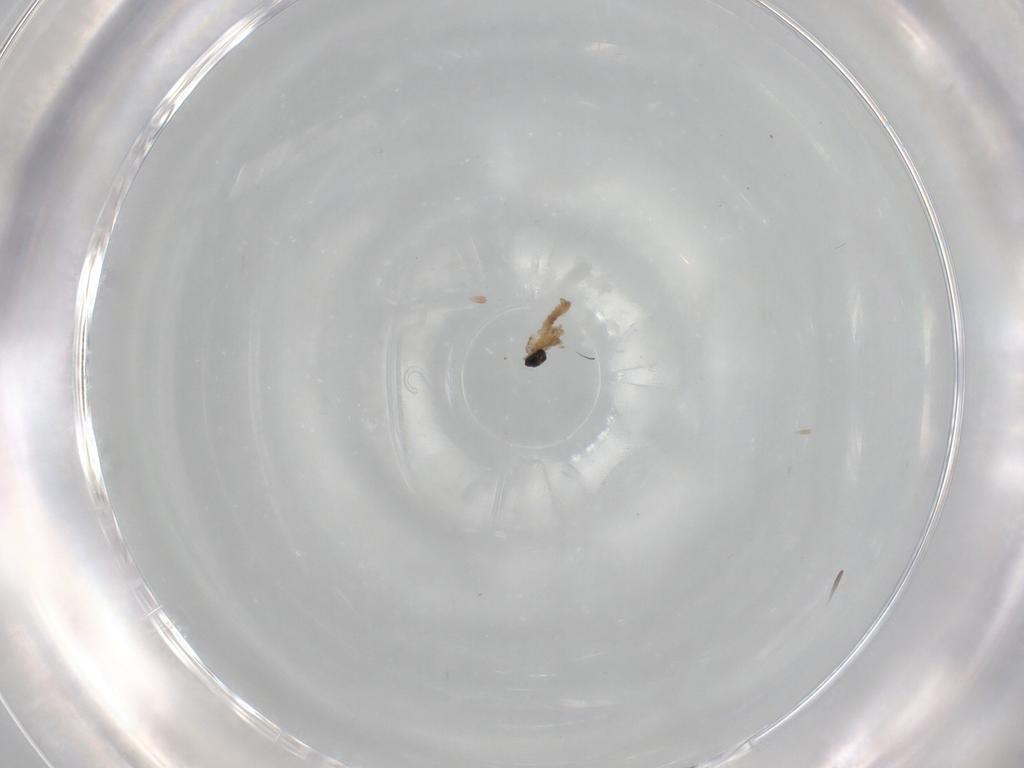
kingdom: Animalia
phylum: Arthropoda
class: Insecta
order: Diptera
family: Cecidomyiidae
